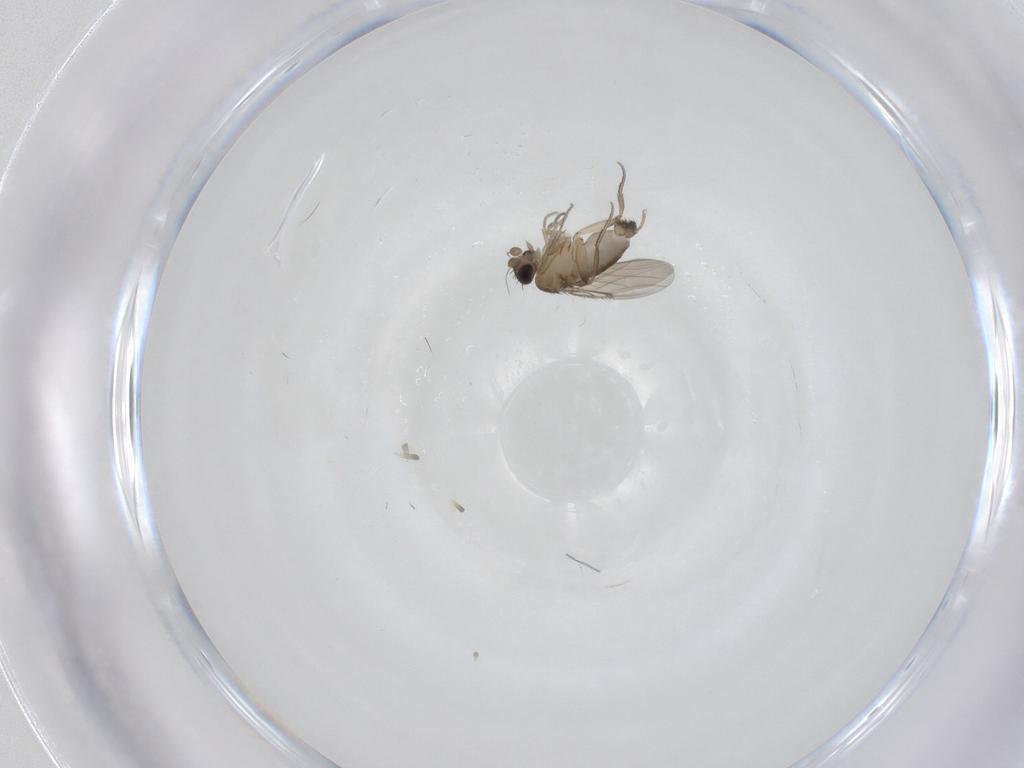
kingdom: Animalia
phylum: Arthropoda
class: Insecta
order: Diptera
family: Phoridae
